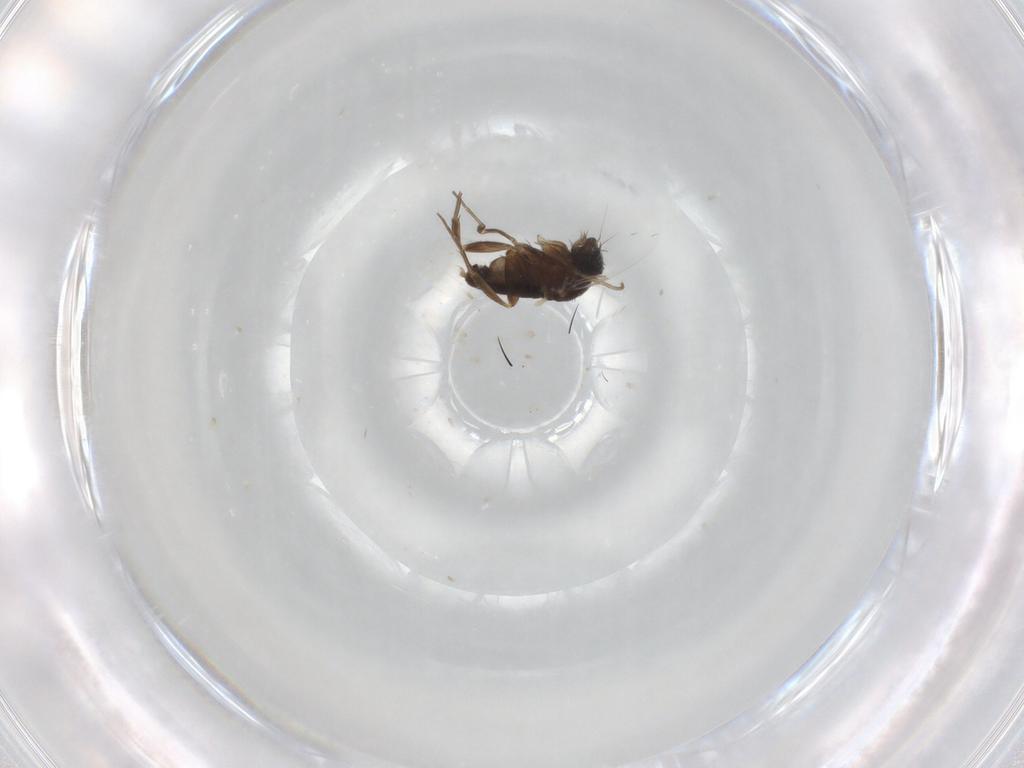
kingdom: Animalia
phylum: Arthropoda
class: Insecta
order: Diptera
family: Phoridae
